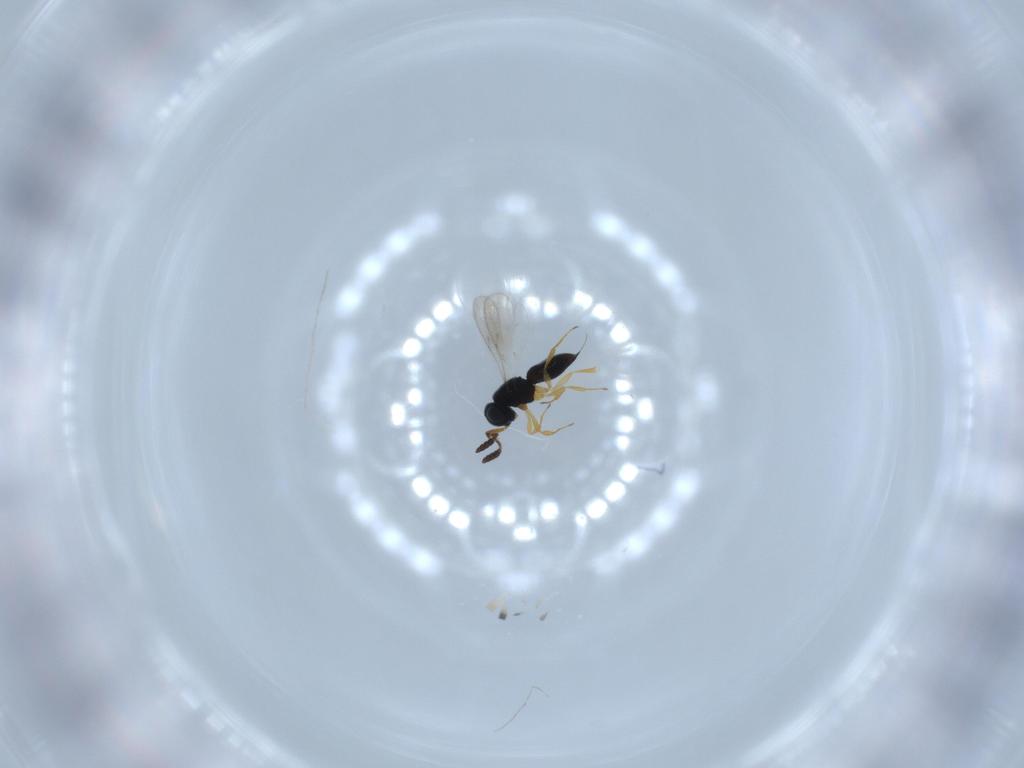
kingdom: Animalia
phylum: Arthropoda
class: Insecta
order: Hymenoptera
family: Scelionidae
